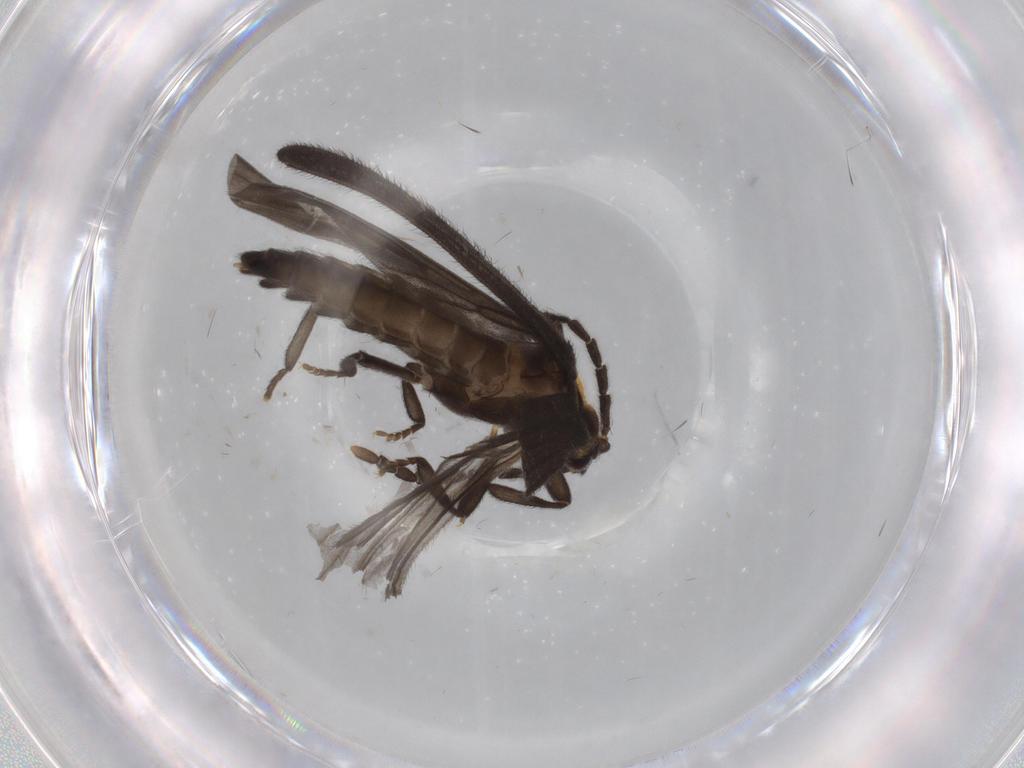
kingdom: Animalia
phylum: Arthropoda
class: Insecta
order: Coleoptera
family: Lycidae
